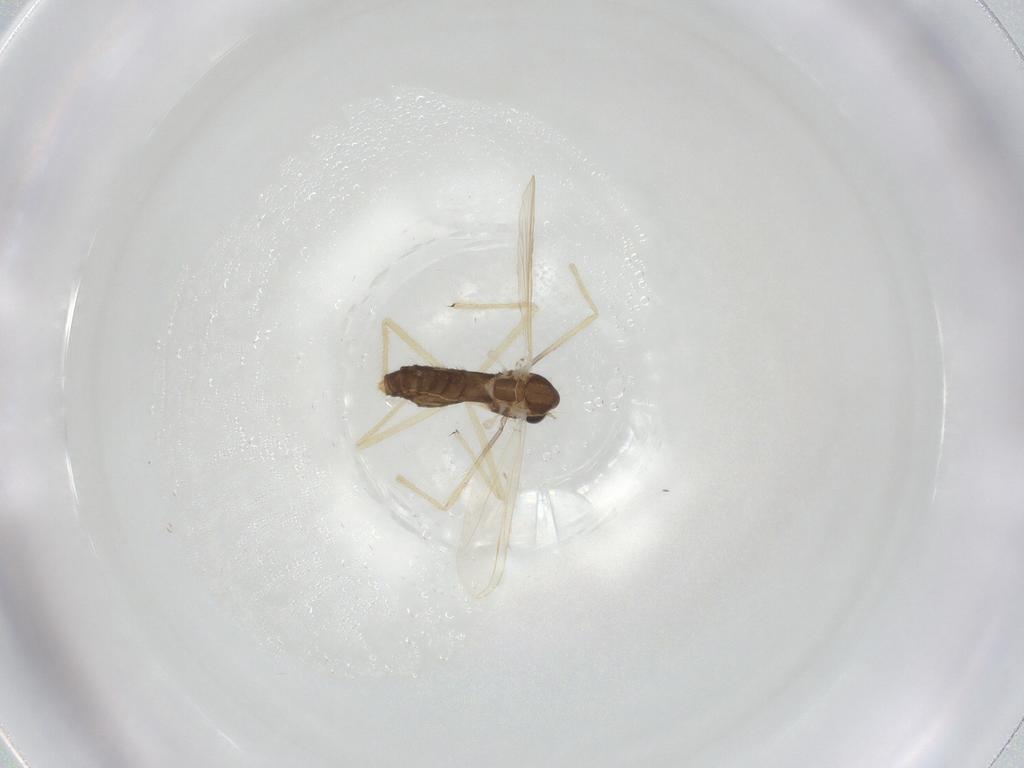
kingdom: Animalia
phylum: Arthropoda
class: Insecta
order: Diptera
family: Chironomidae
